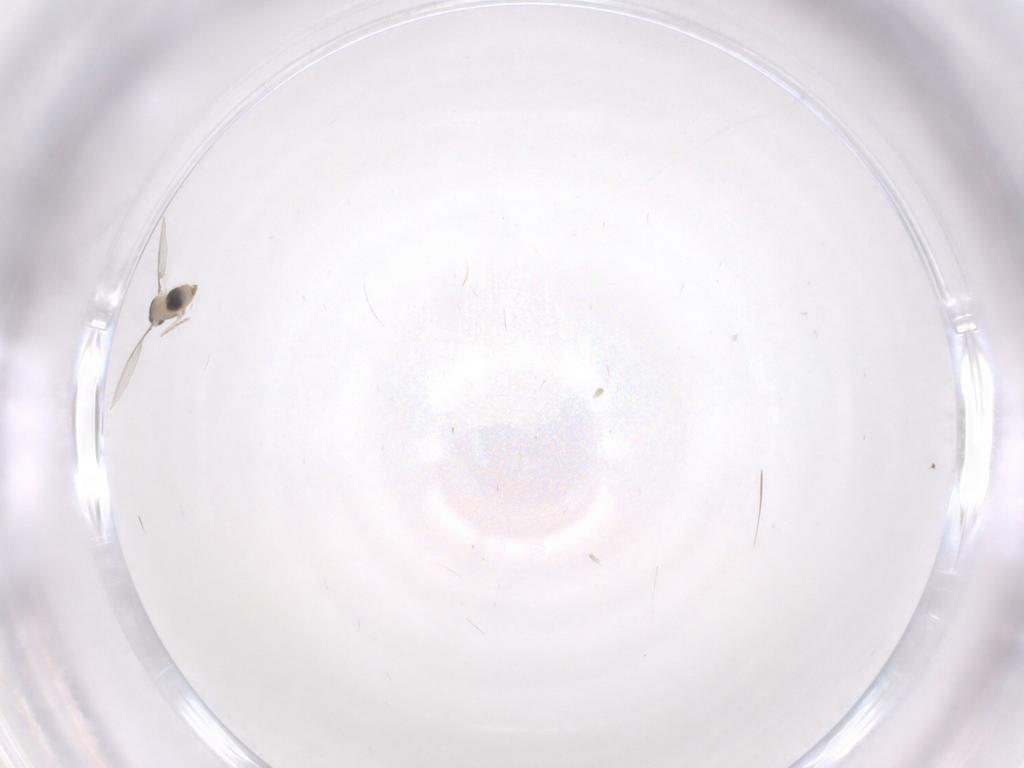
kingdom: Animalia
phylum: Arthropoda
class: Insecta
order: Diptera
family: Cecidomyiidae
